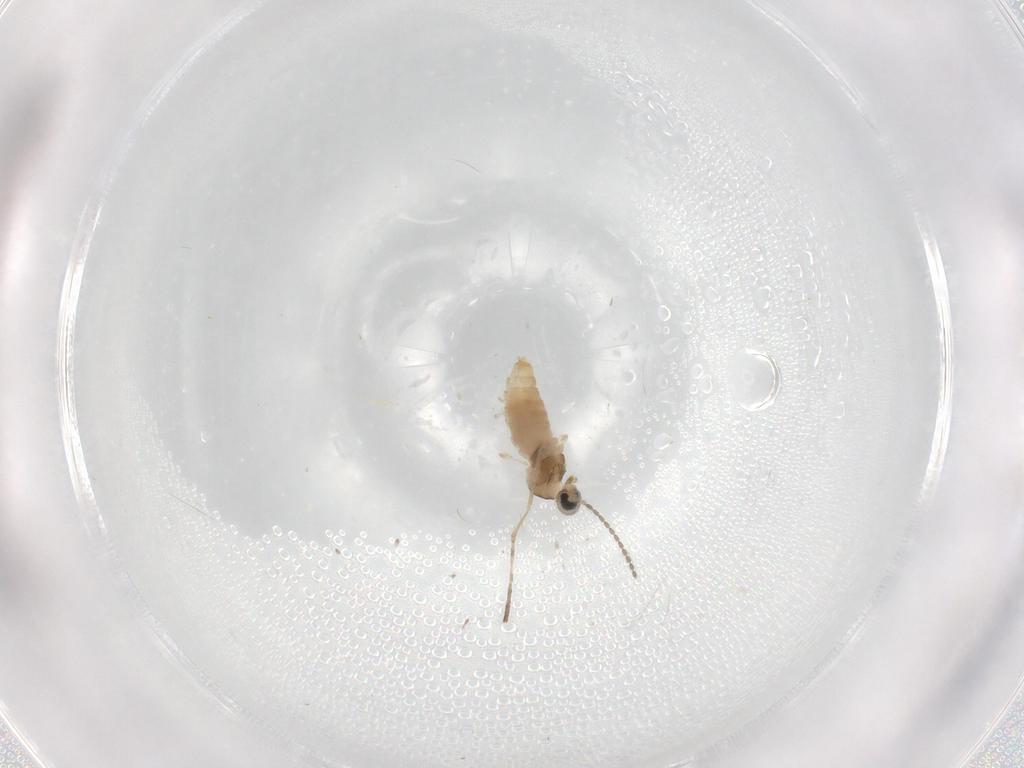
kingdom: Animalia
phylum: Arthropoda
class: Insecta
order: Diptera
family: Cecidomyiidae
